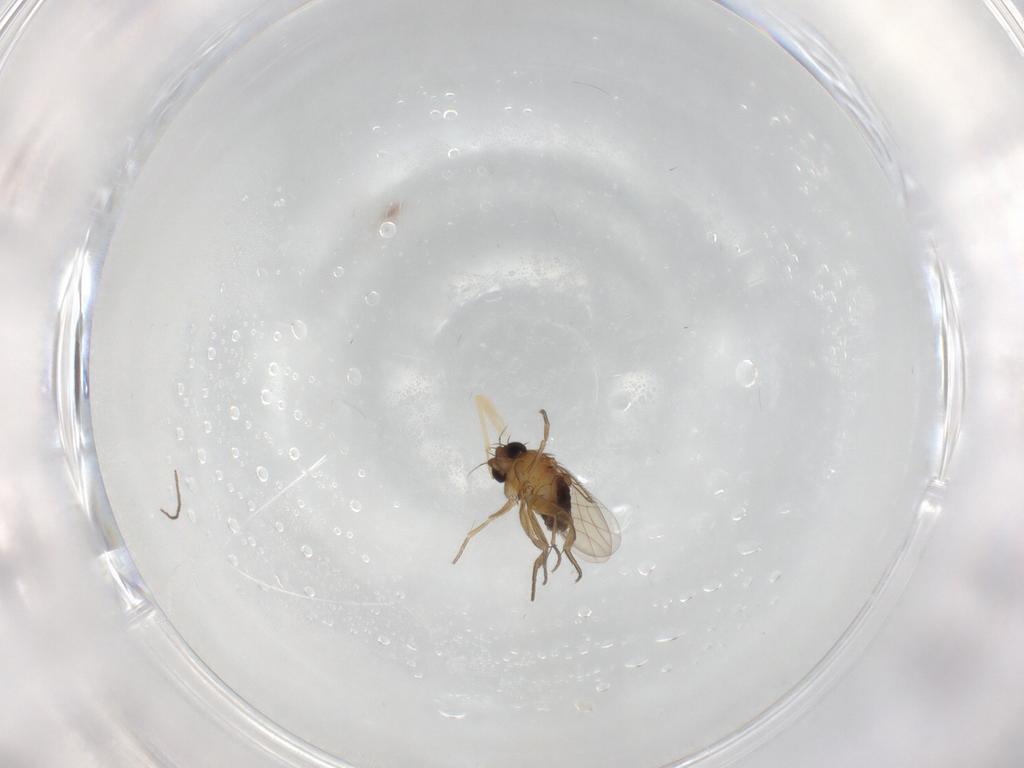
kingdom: Animalia
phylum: Arthropoda
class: Insecta
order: Diptera
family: Phoridae
